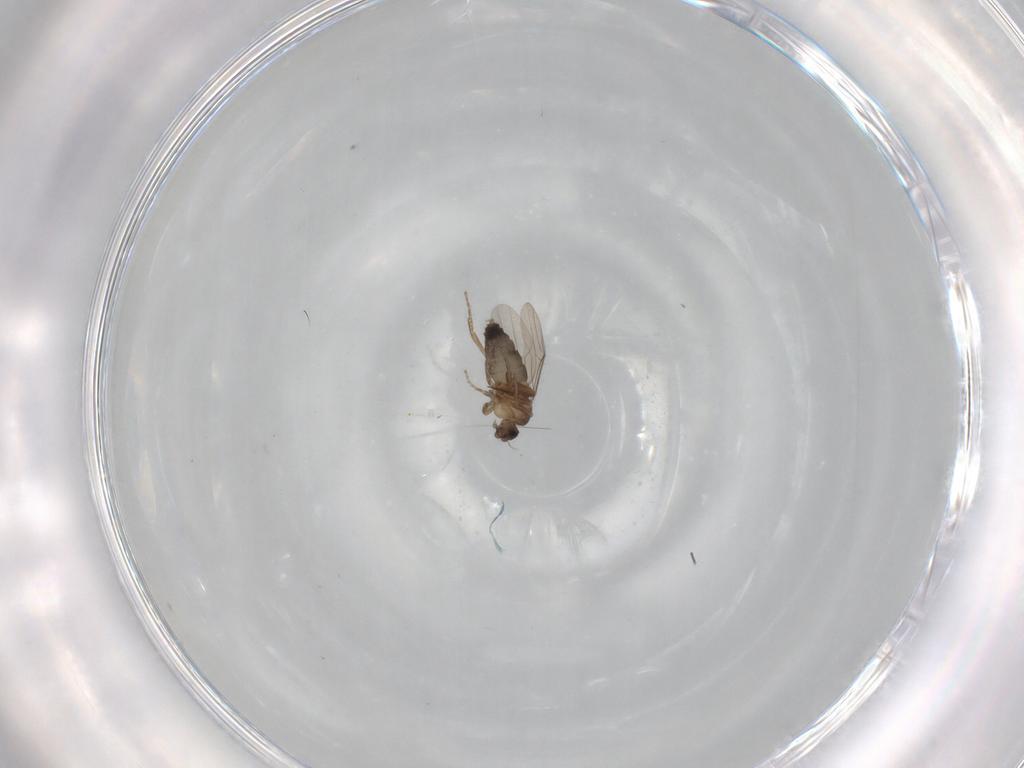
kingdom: Animalia
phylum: Arthropoda
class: Insecta
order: Diptera
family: Phoridae
